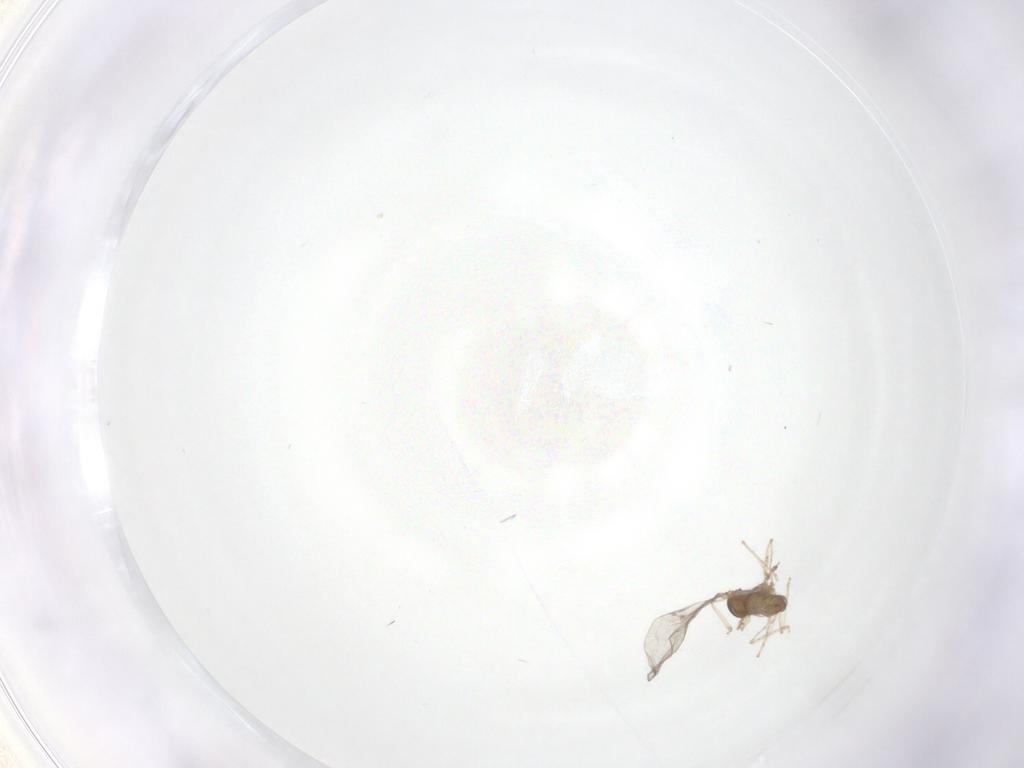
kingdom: Animalia
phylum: Arthropoda
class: Insecta
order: Diptera
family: Cecidomyiidae
